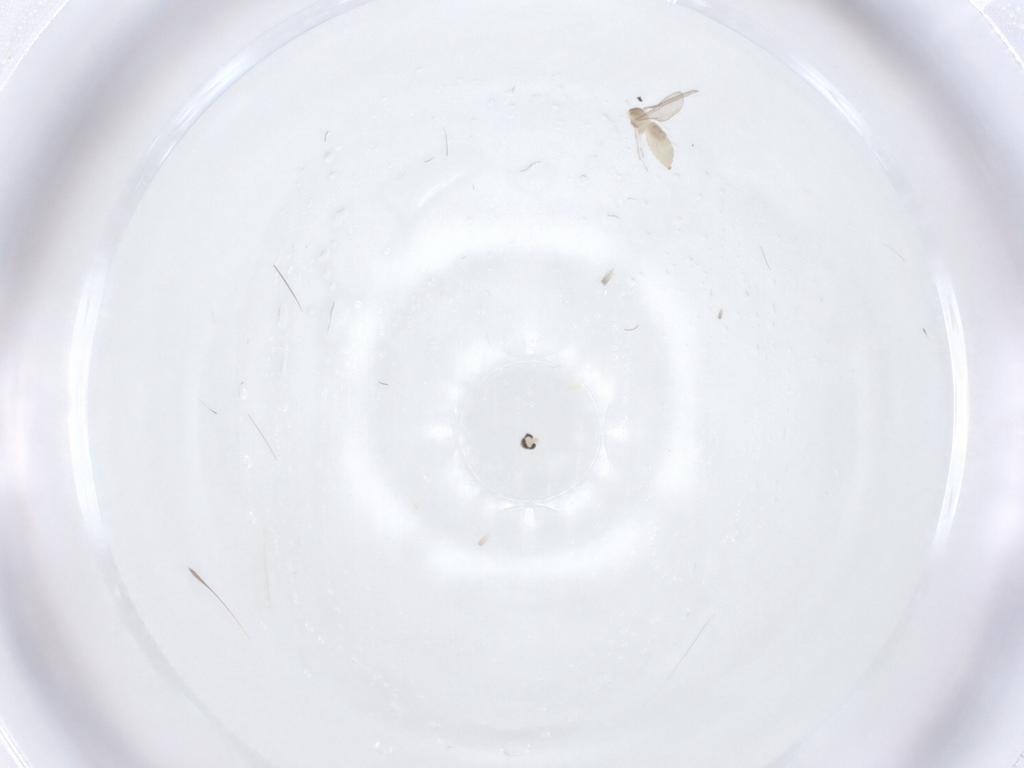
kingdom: Animalia
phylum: Arthropoda
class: Insecta
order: Diptera
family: Cecidomyiidae
